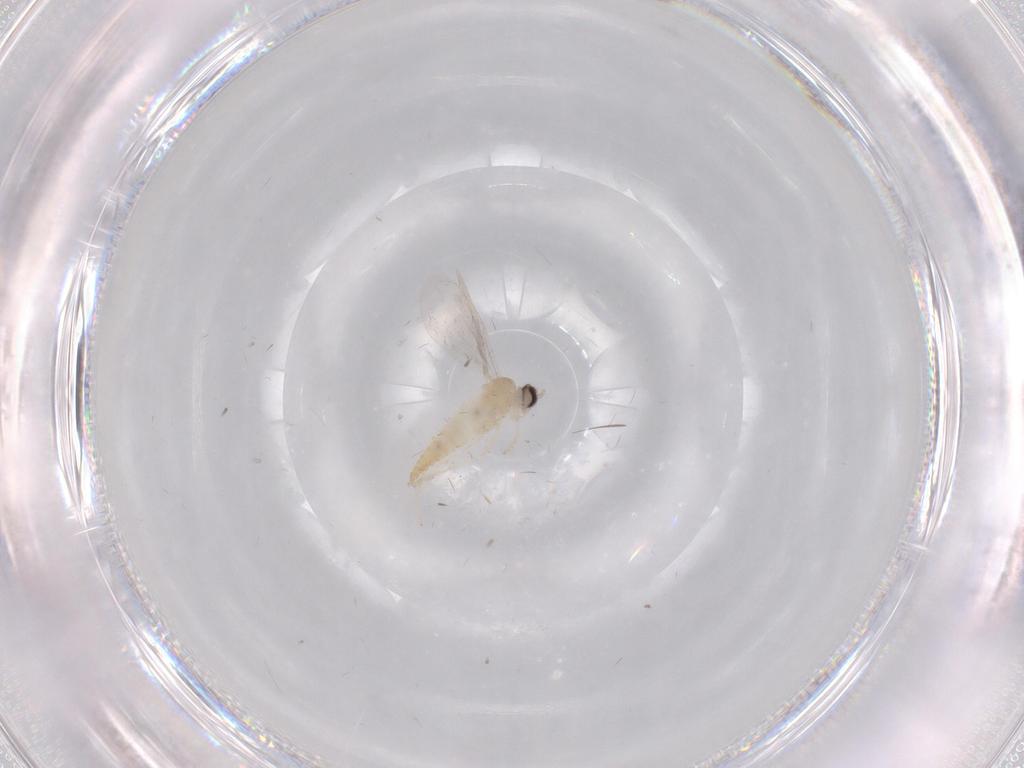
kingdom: Animalia
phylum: Arthropoda
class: Insecta
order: Diptera
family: Cecidomyiidae
